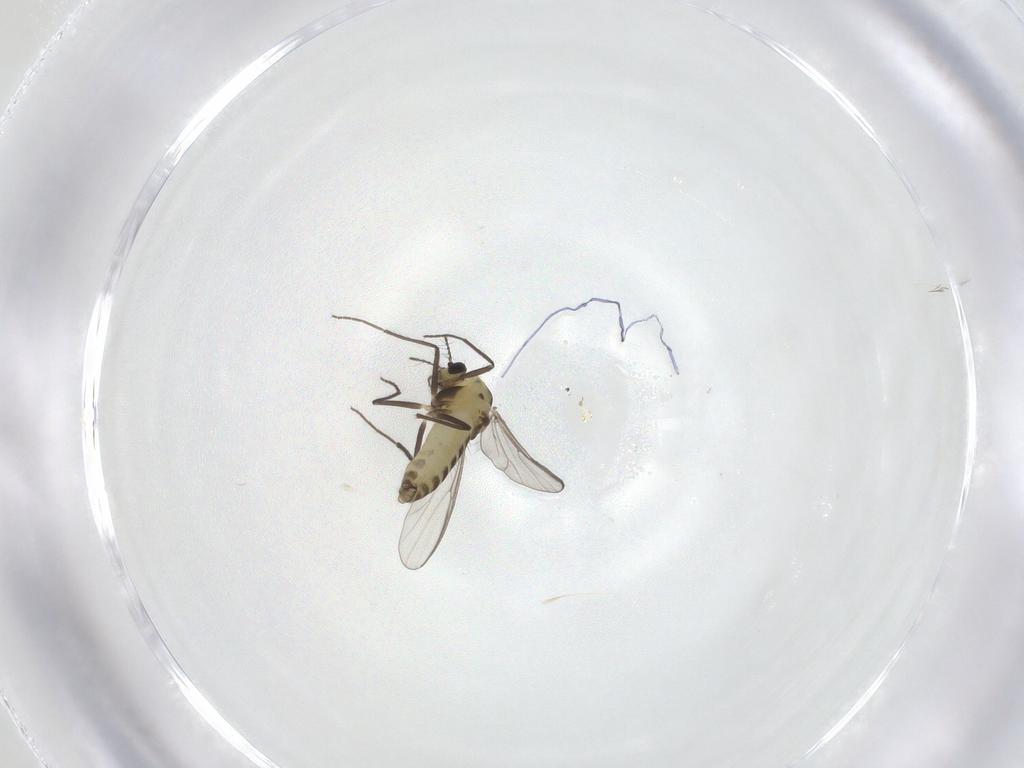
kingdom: Animalia
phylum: Arthropoda
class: Insecta
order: Diptera
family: Chironomidae
